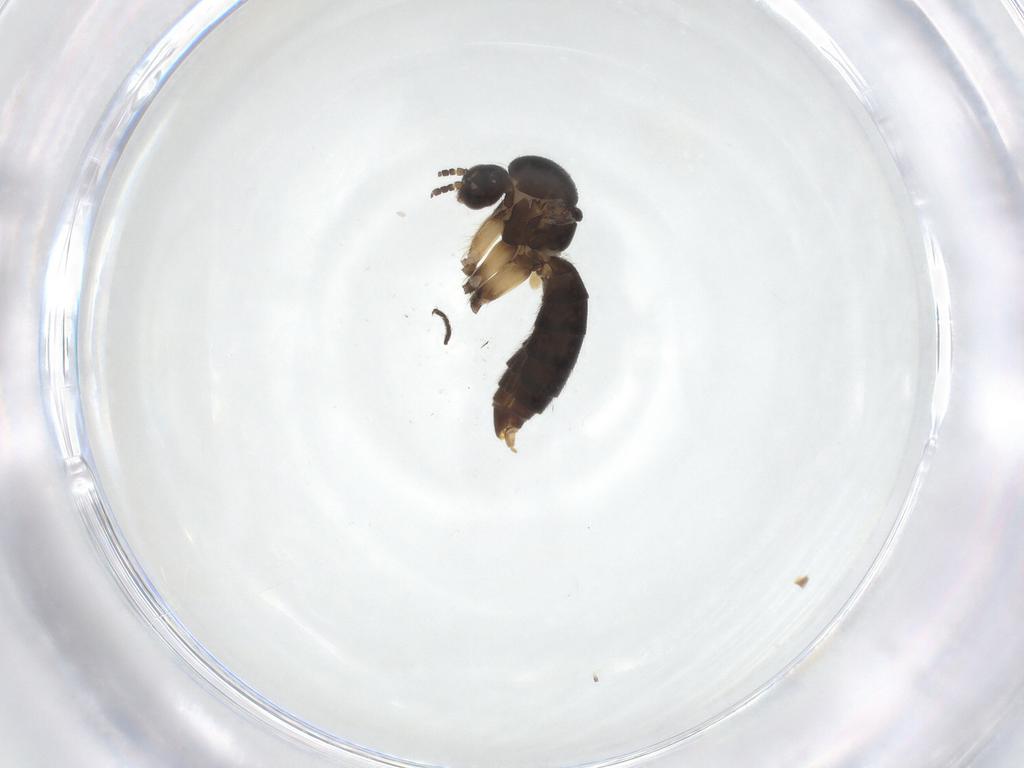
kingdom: Animalia
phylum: Arthropoda
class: Insecta
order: Diptera
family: Mycetophilidae
